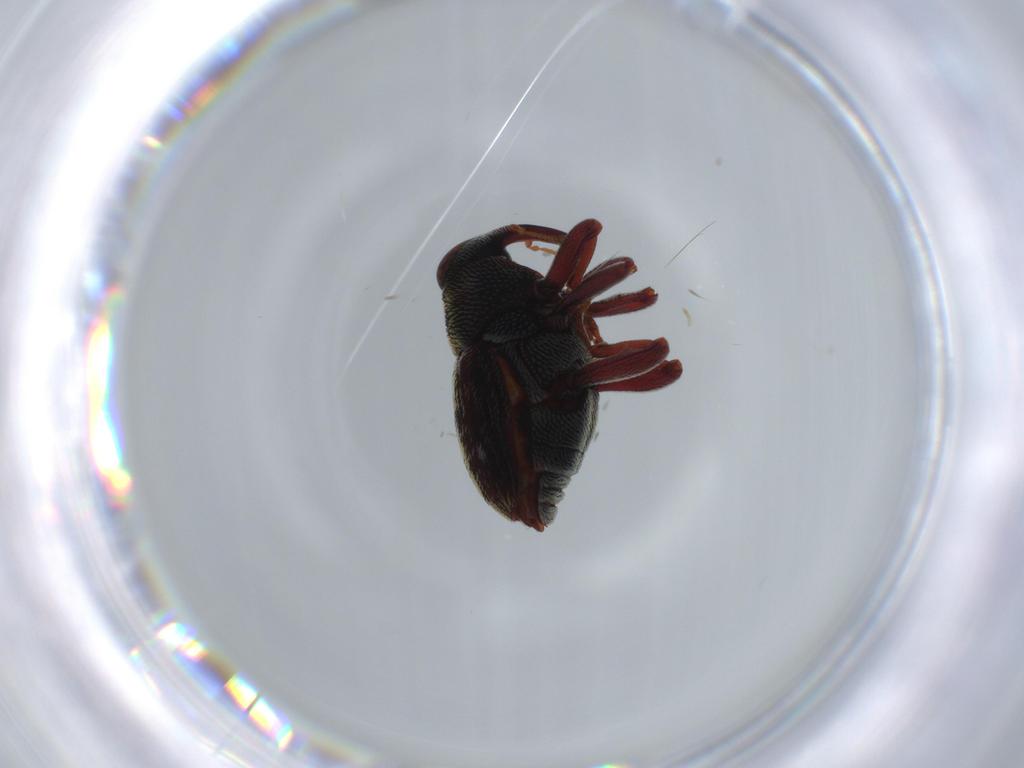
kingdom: Animalia
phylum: Arthropoda
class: Insecta
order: Coleoptera
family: Curculionidae
